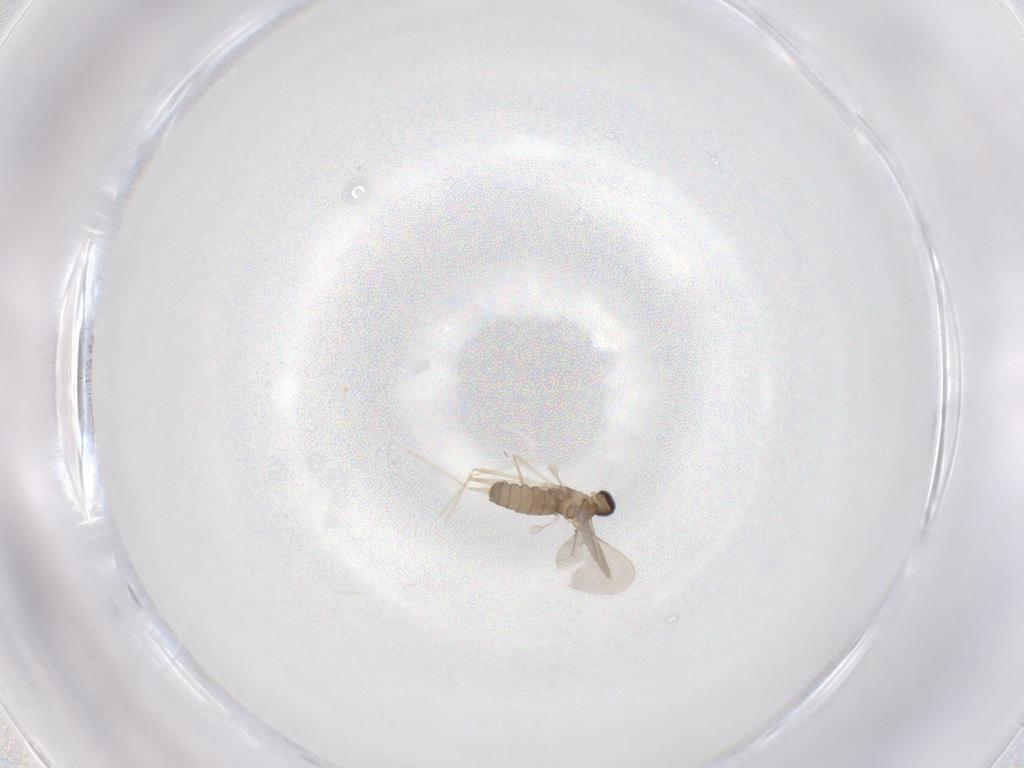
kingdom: Animalia
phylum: Arthropoda
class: Insecta
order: Diptera
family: Cecidomyiidae
